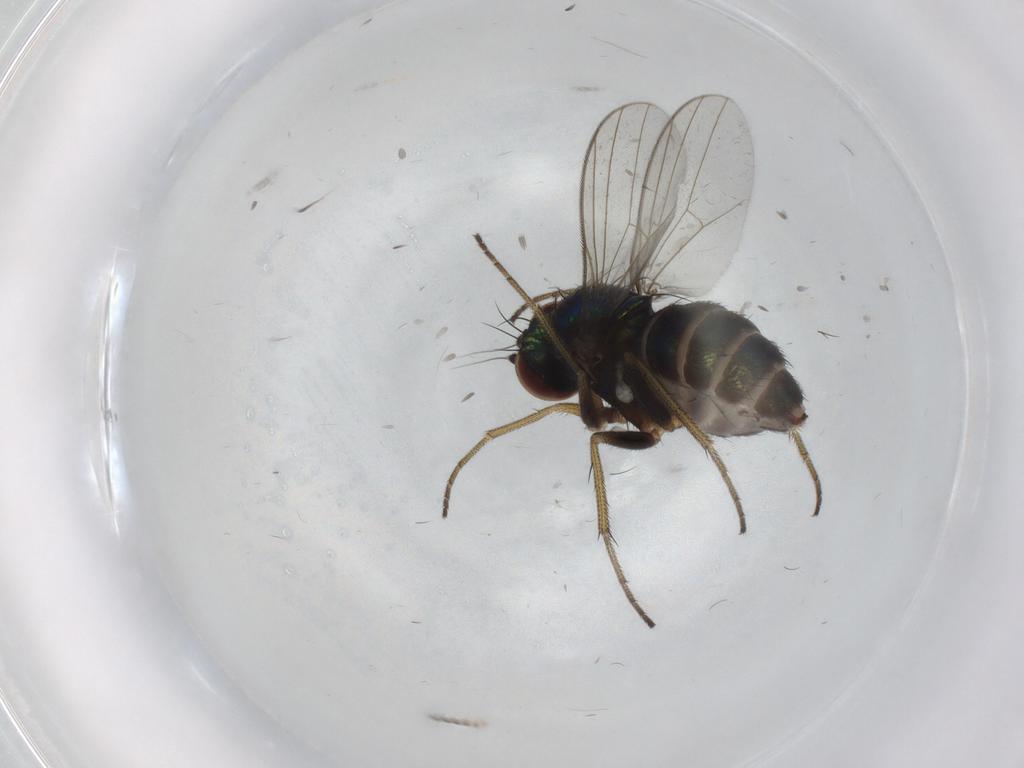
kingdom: Animalia
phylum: Arthropoda
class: Insecta
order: Diptera
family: Dolichopodidae
